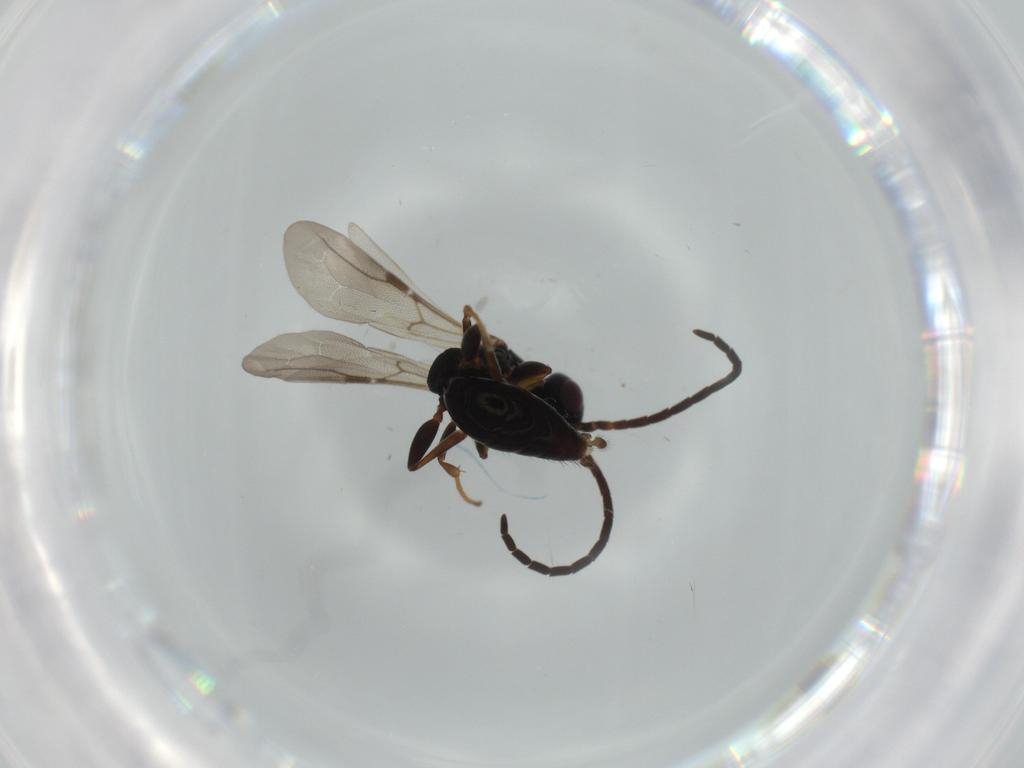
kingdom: Animalia
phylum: Arthropoda
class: Insecta
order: Hymenoptera
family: Bethylidae
